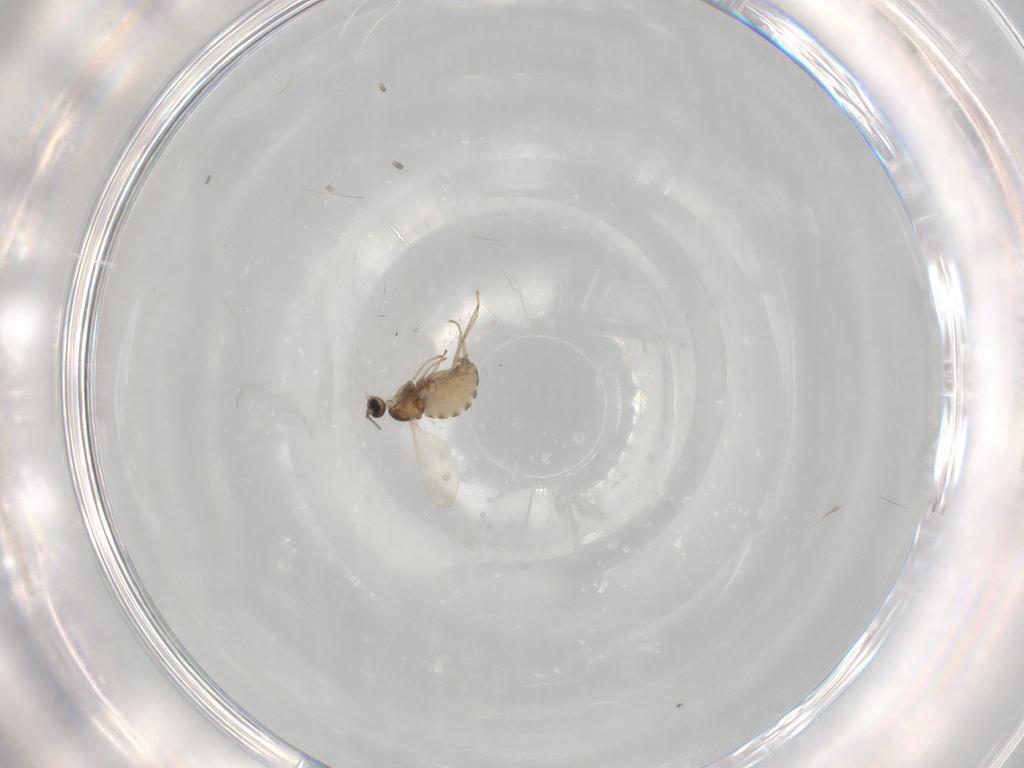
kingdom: Animalia
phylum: Arthropoda
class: Insecta
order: Diptera
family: Cecidomyiidae
